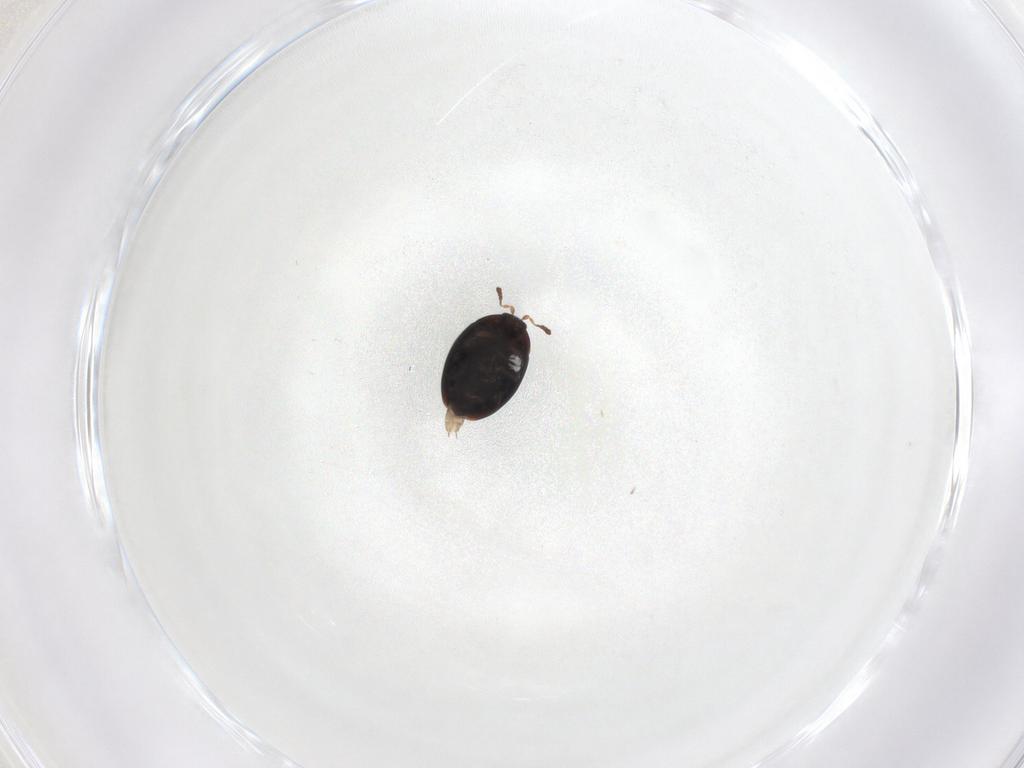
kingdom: Animalia
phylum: Arthropoda
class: Insecta
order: Coleoptera
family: Corylophidae
